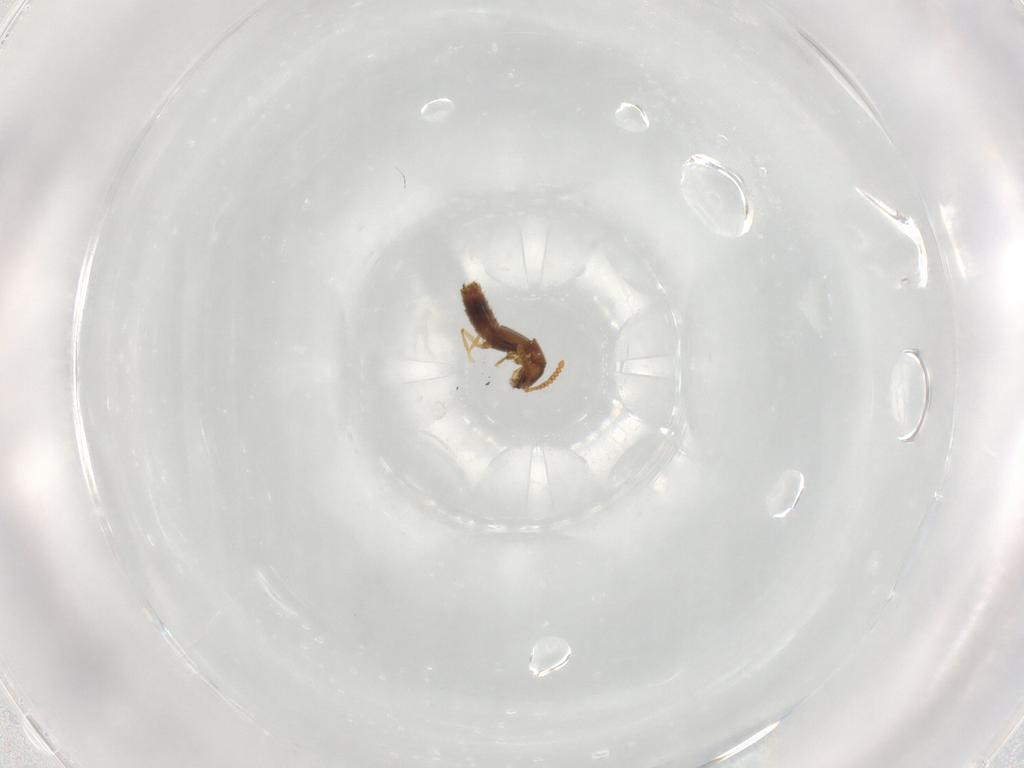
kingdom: Animalia
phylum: Arthropoda
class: Insecta
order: Coleoptera
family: Staphylinidae
